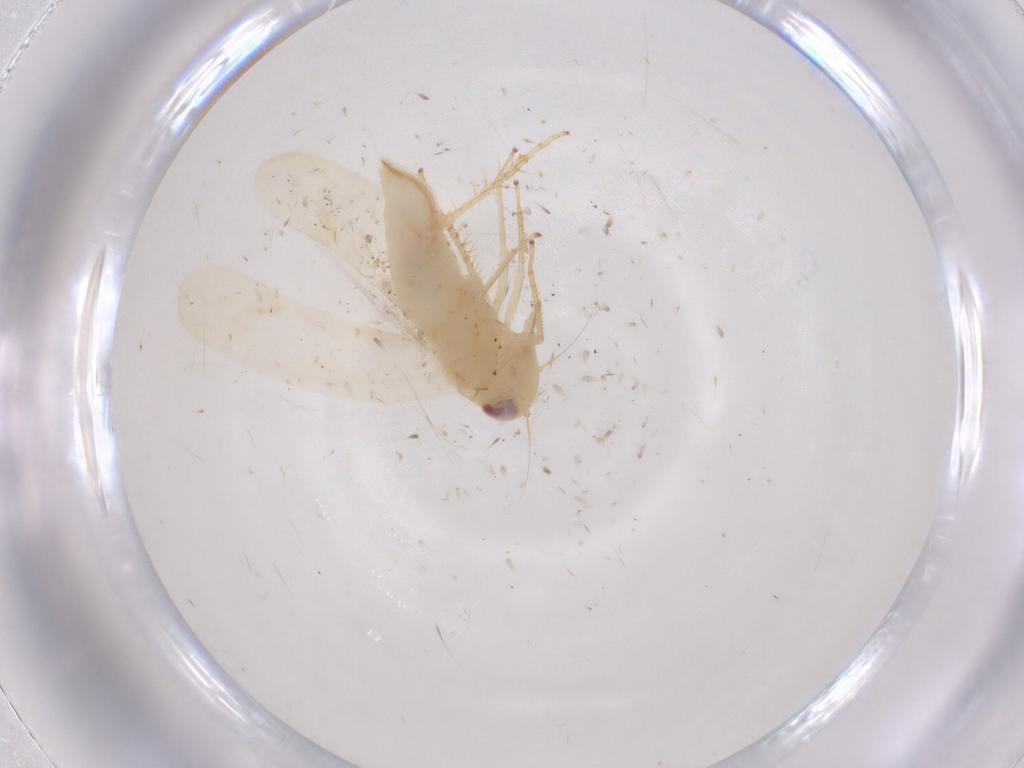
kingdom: Animalia
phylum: Arthropoda
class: Insecta
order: Hemiptera
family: Cicadellidae
